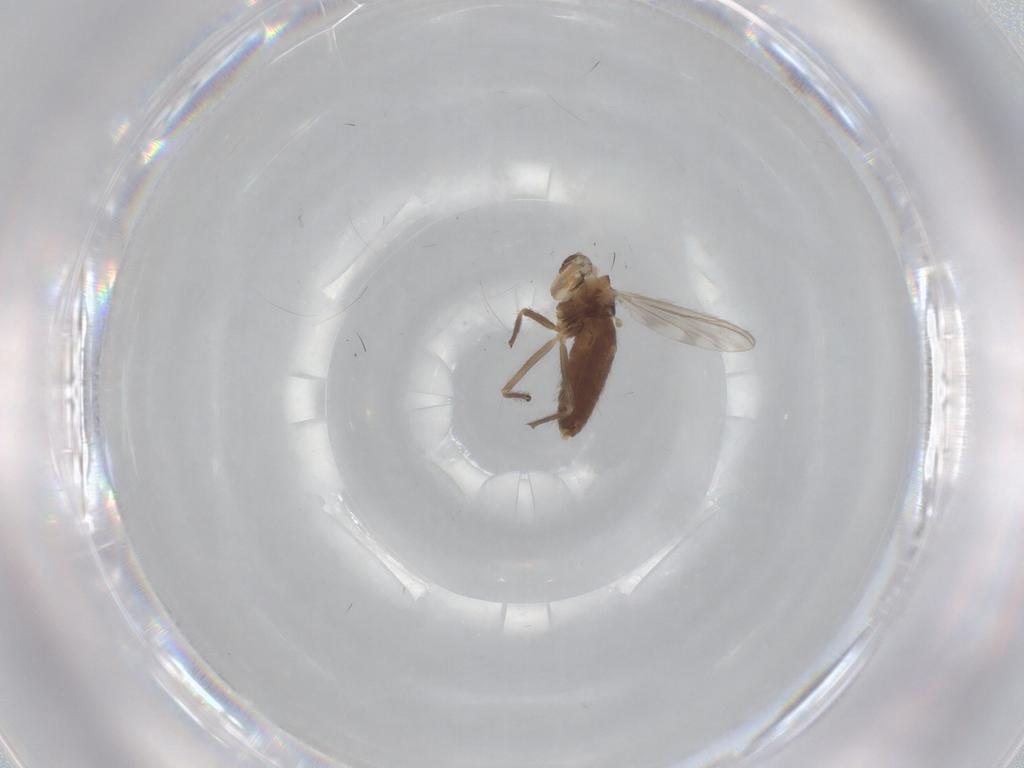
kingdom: Animalia
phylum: Arthropoda
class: Insecta
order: Diptera
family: Chironomidae
